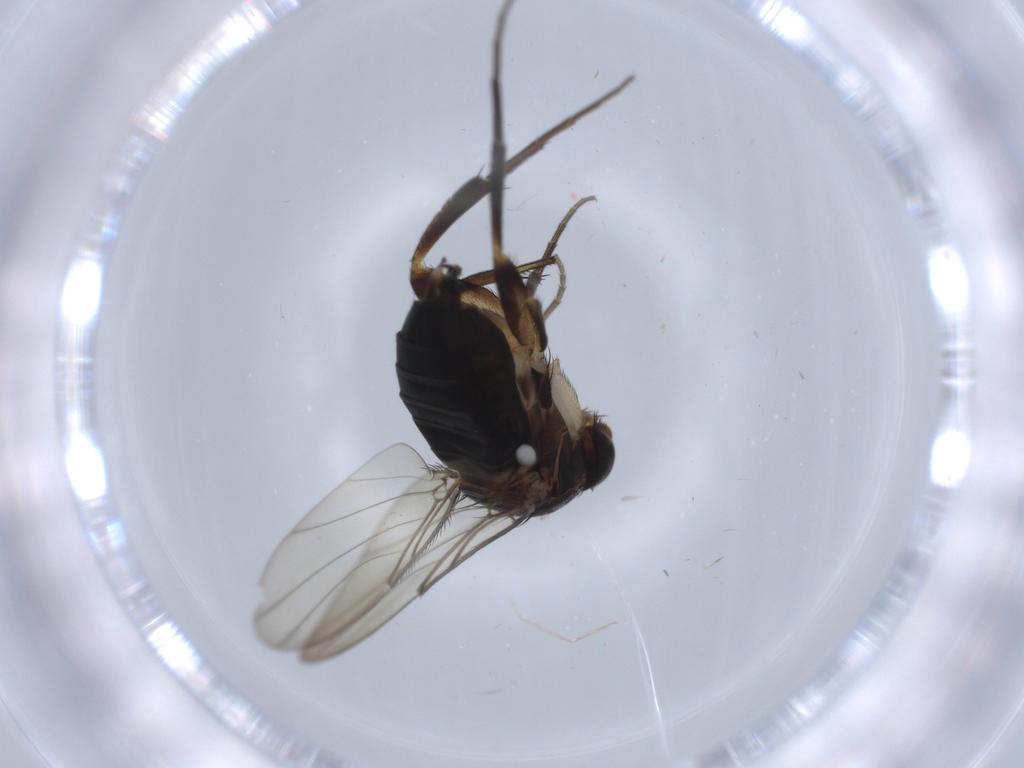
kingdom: Animalia
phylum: Arthropoda
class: Insecta
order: Diptera
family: Phoridae
